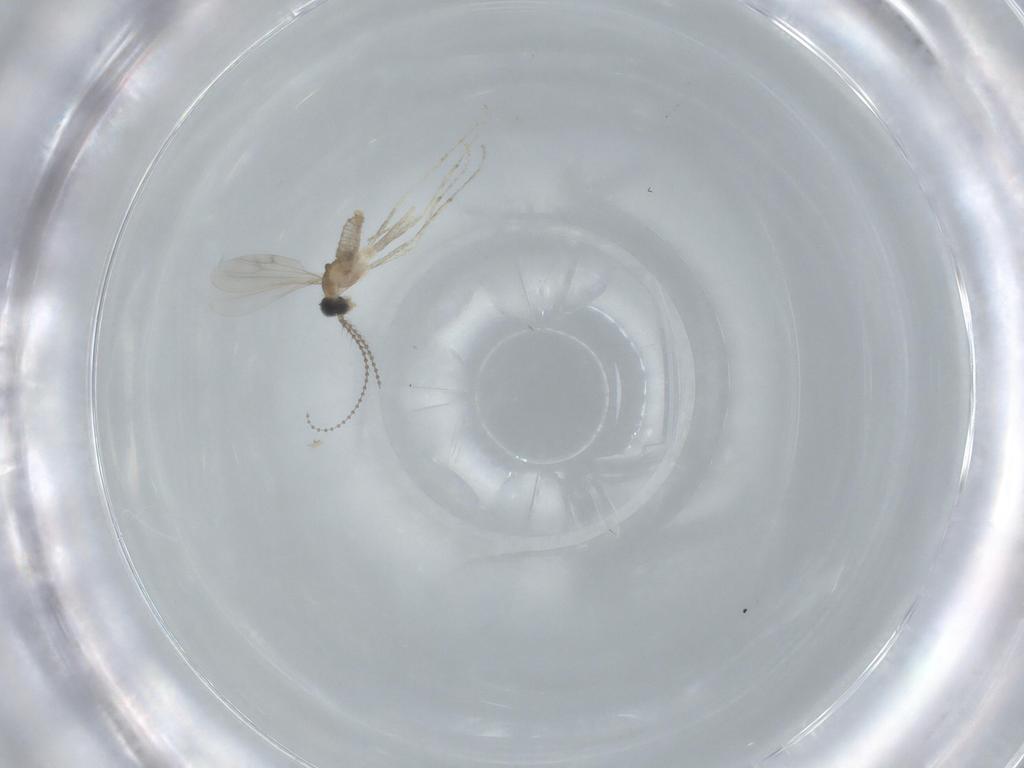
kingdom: Animalia
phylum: Arthropoda
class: Insecta
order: Diptera
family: Cecidomyiidae
